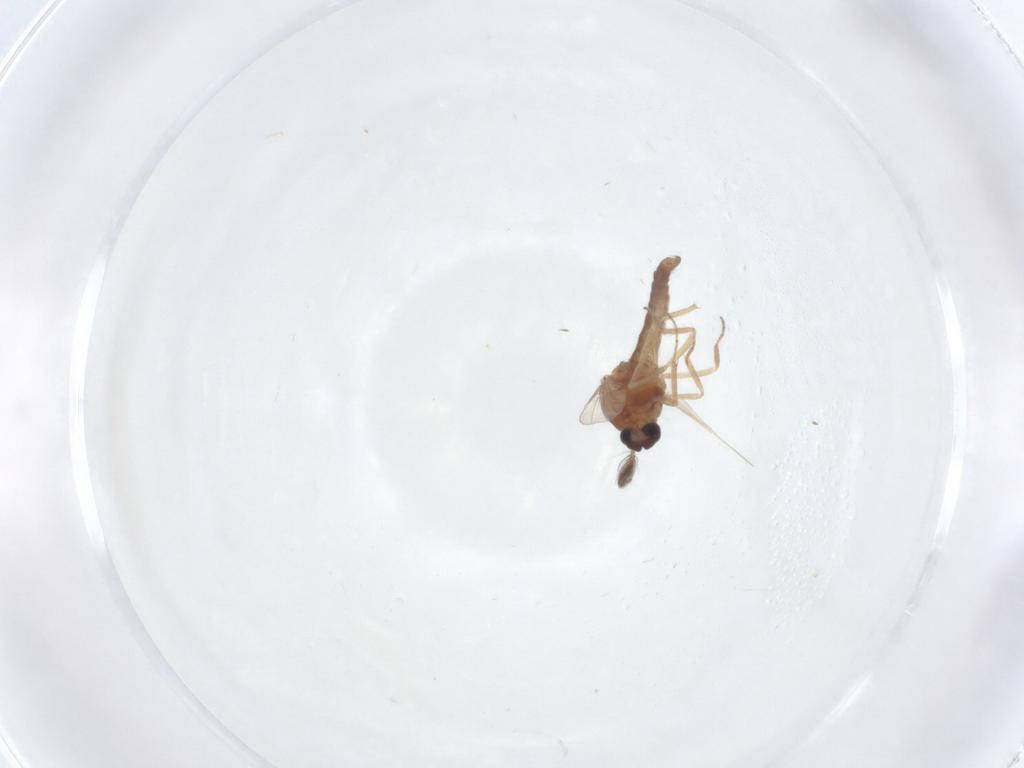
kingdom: Animalia
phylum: Arthropoda
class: Insecta
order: Diptera
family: Ceratopogonidae
